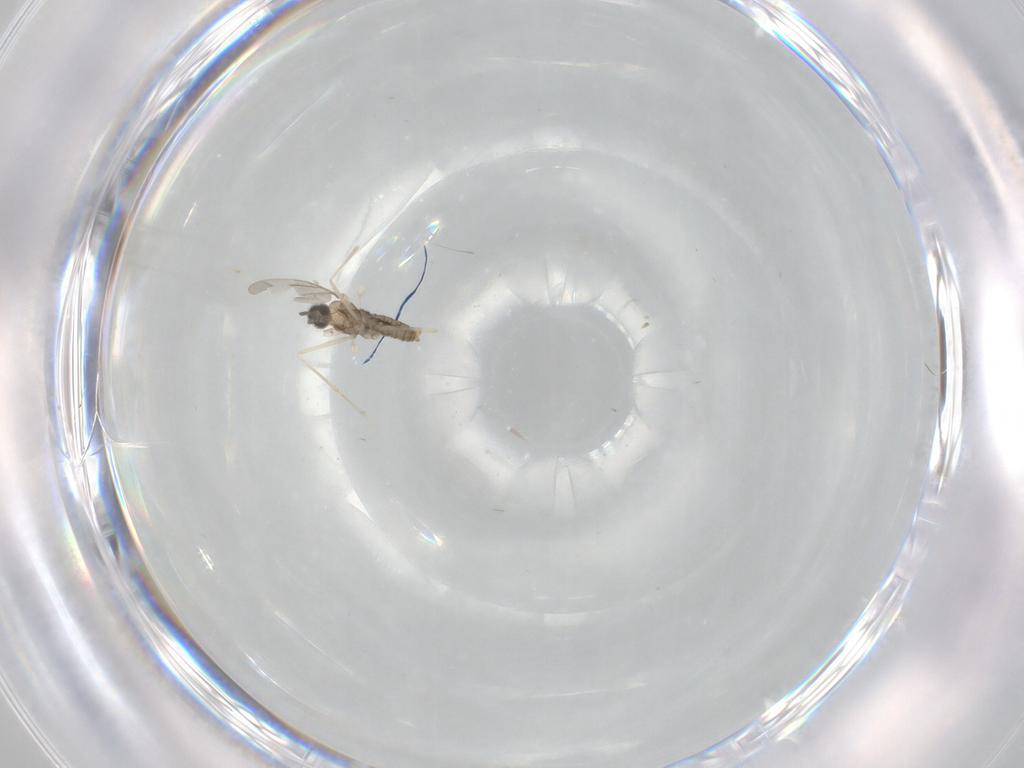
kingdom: Animalia
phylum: Arthropoda
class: Insecta
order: Diptera
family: Cecidomyiidae
